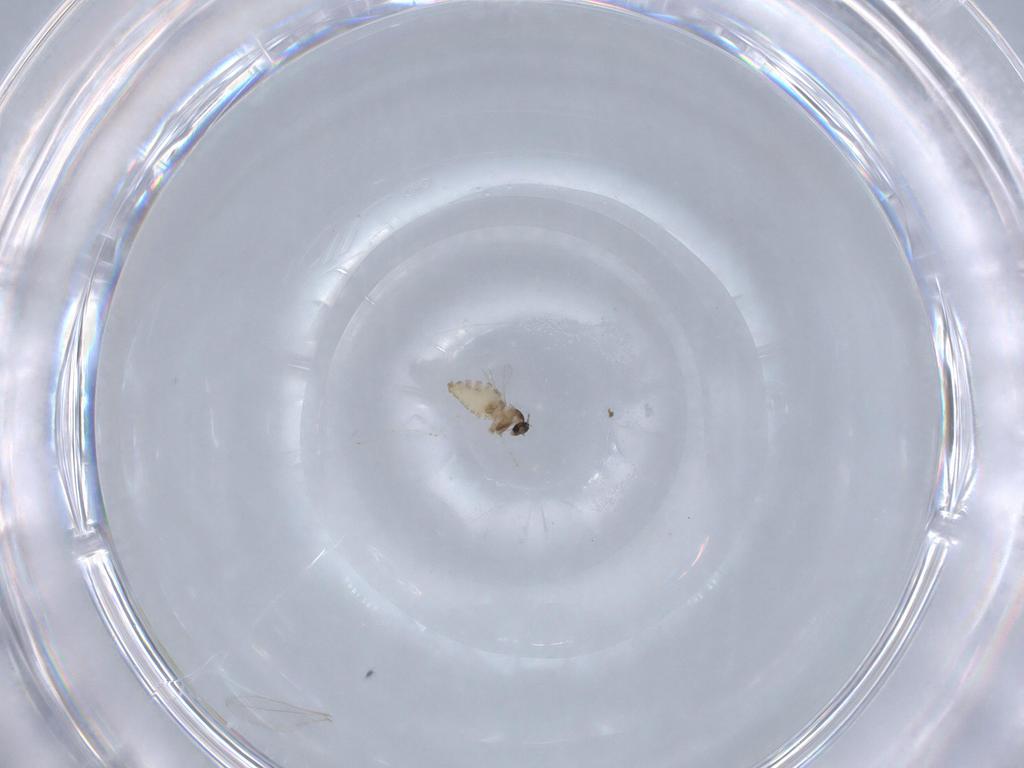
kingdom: Animalia
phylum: Arthropoda
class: Insecta
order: Diptera
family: Cecidomyiidae
